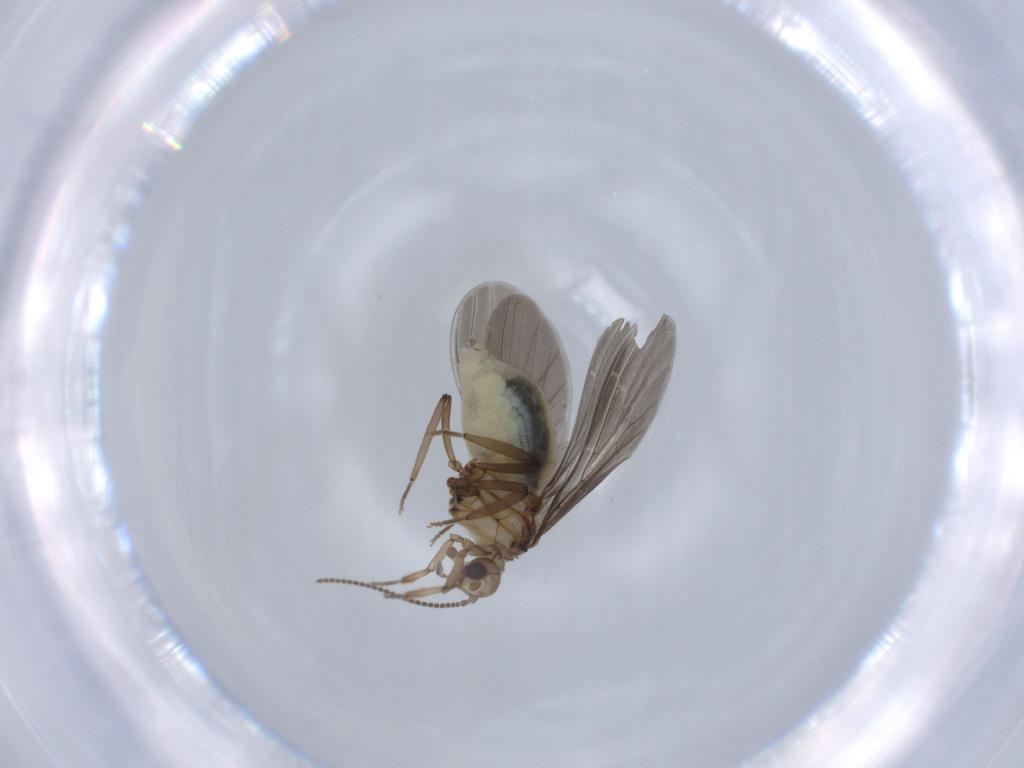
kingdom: Animalia
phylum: Arthropoda
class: Insecta
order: Neuroptera
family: Coniopterygidae
